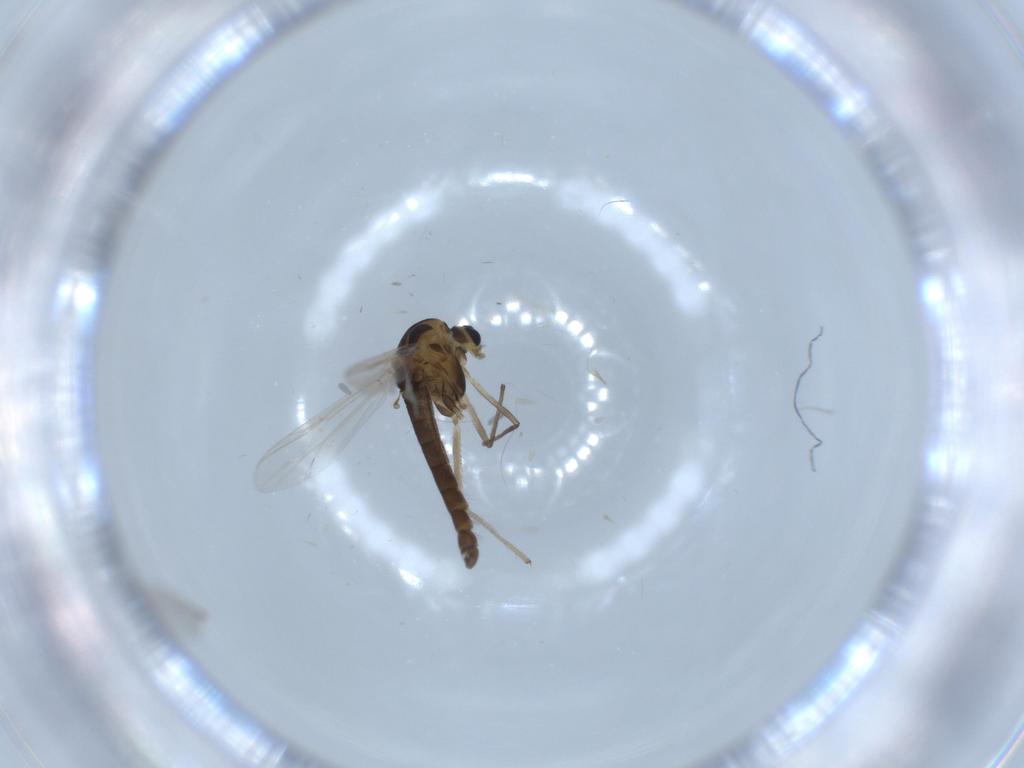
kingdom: Animalia
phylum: Arthropoda
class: Insecta
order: Diptera
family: Chironomidae
